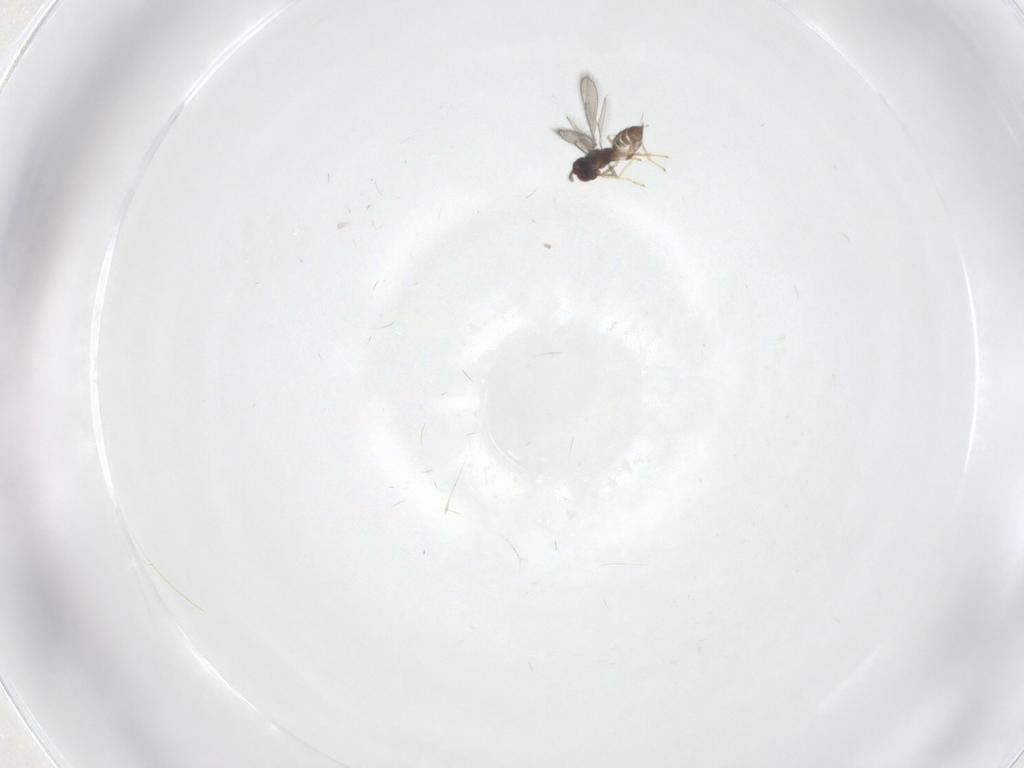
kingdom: Animalia
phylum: Arthropoda
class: Insecta
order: Hymenoptera
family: Eulophidae
